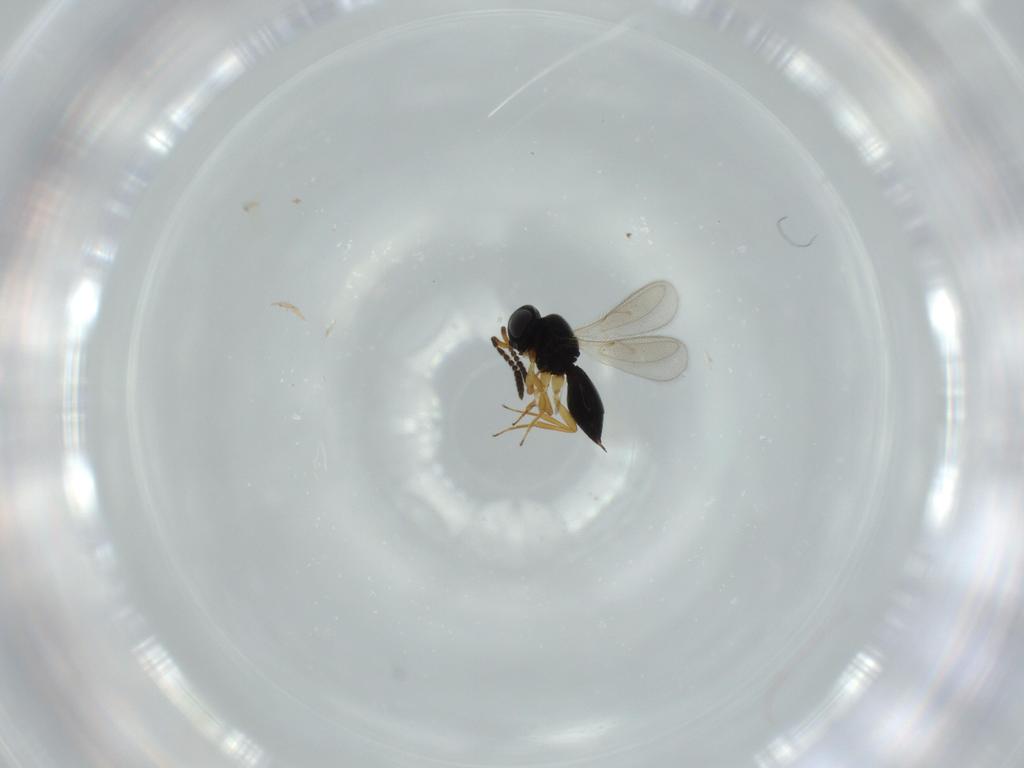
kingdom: Animalia
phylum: Arthropoda
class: Insecta
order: Hymenoptera
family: Scelionidae
